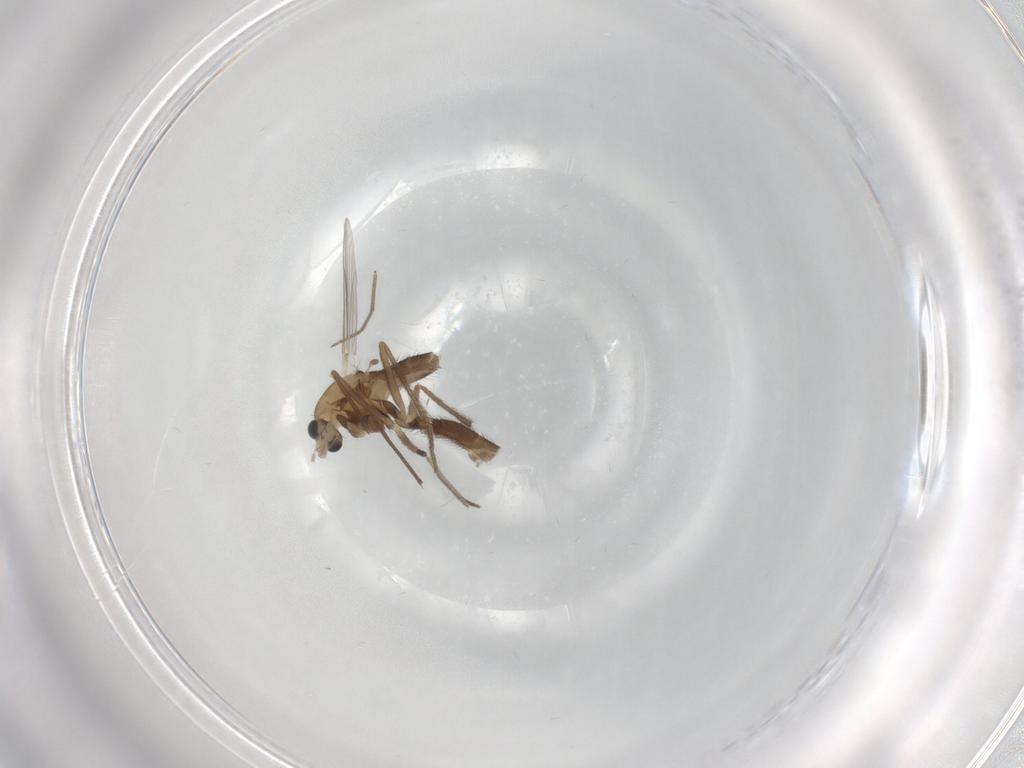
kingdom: Animalia
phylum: Arthropoda
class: Insecta
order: Diptera
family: Chironomidae
